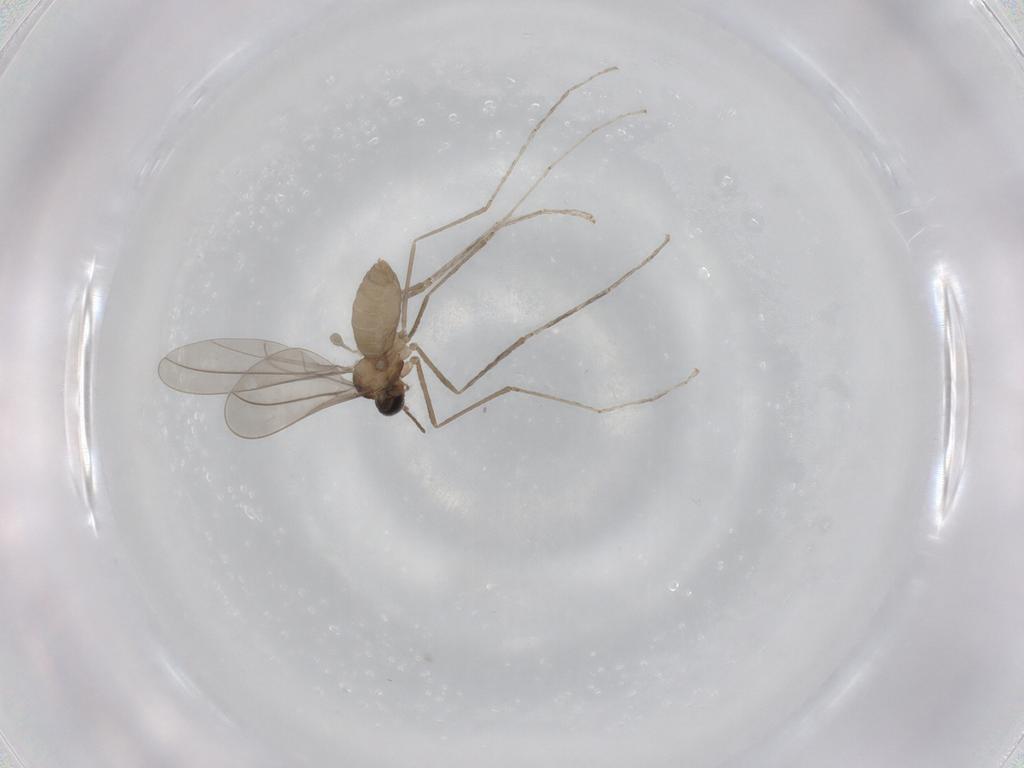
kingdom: Animalia
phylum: Arthropoda
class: Insecta
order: Diptera
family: Cecidomyiidae
